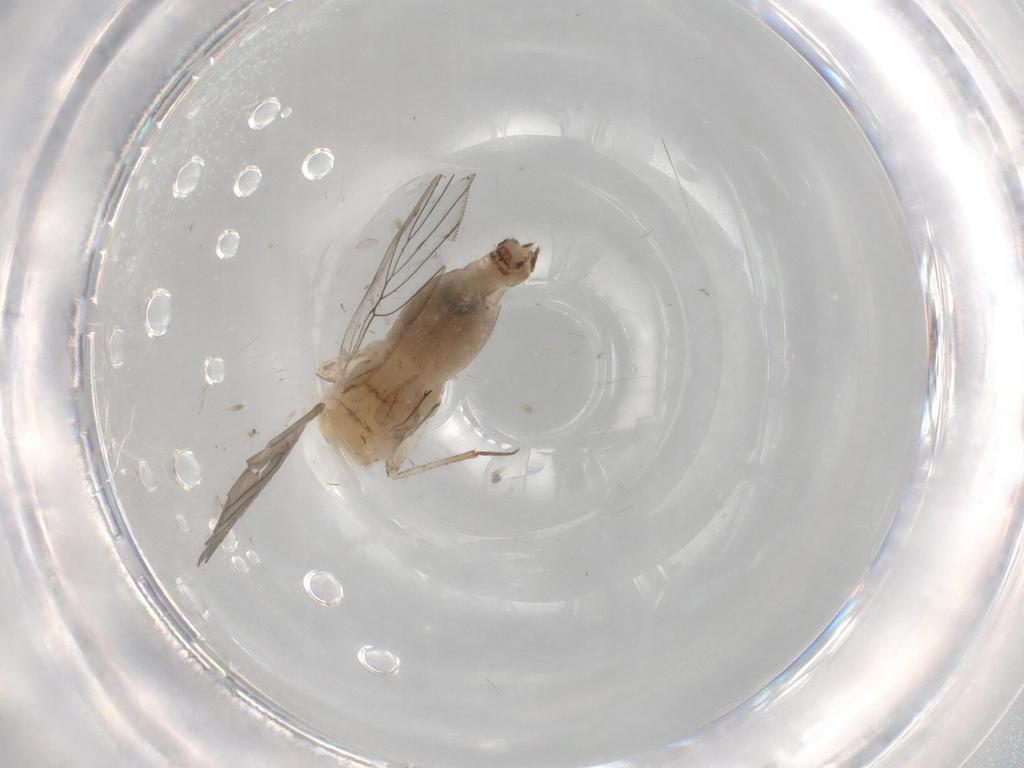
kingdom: Animalia
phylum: Arthropoda
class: Insecta
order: Psocodea
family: Lepidopsocidae
